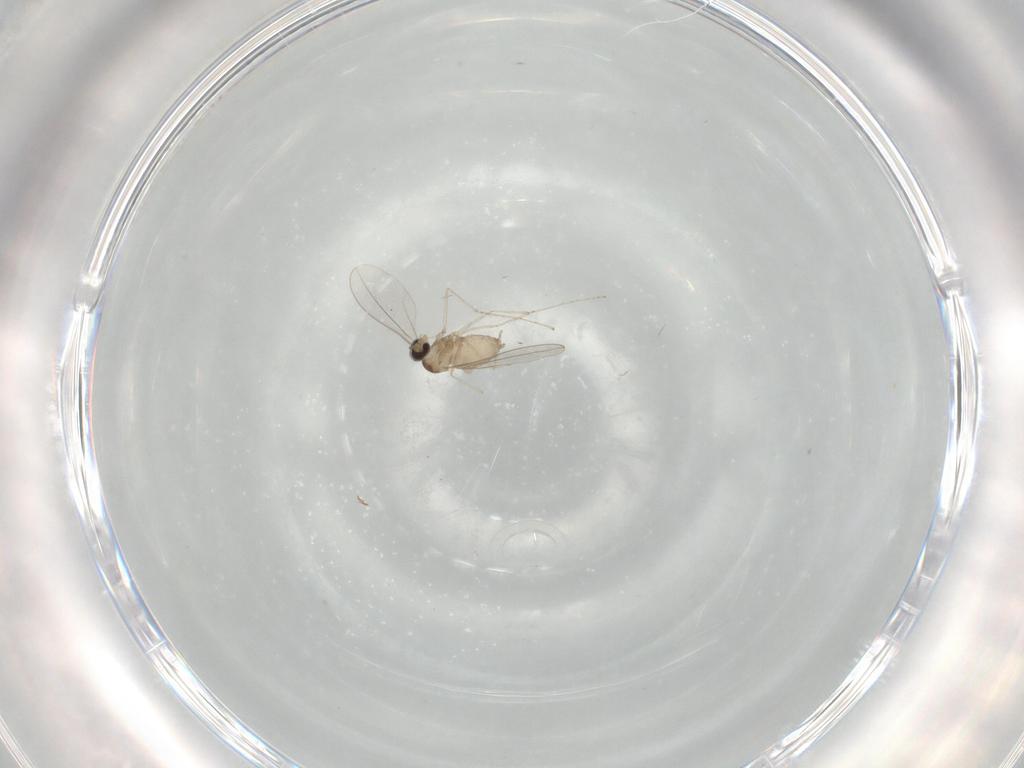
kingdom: Animalia
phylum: Arthropoda
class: Insecta
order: Diptera
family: Cecidomyiidae
